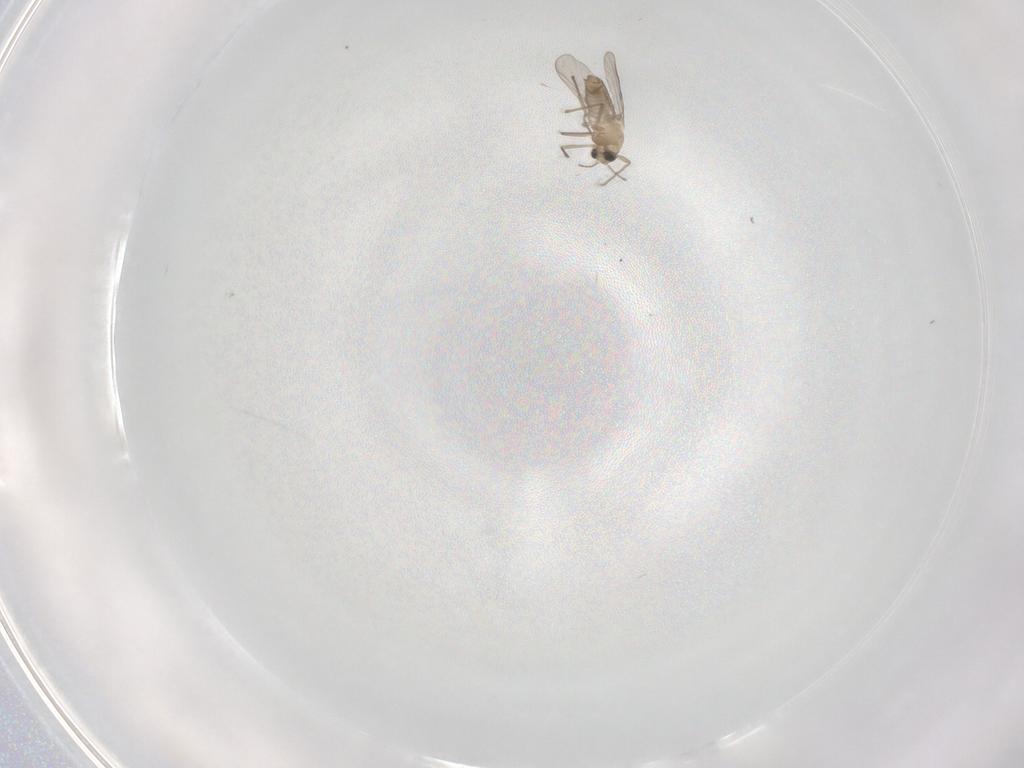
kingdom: Animalia
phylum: Arthropoda
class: Insecta
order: Diptera
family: Chironomidae
